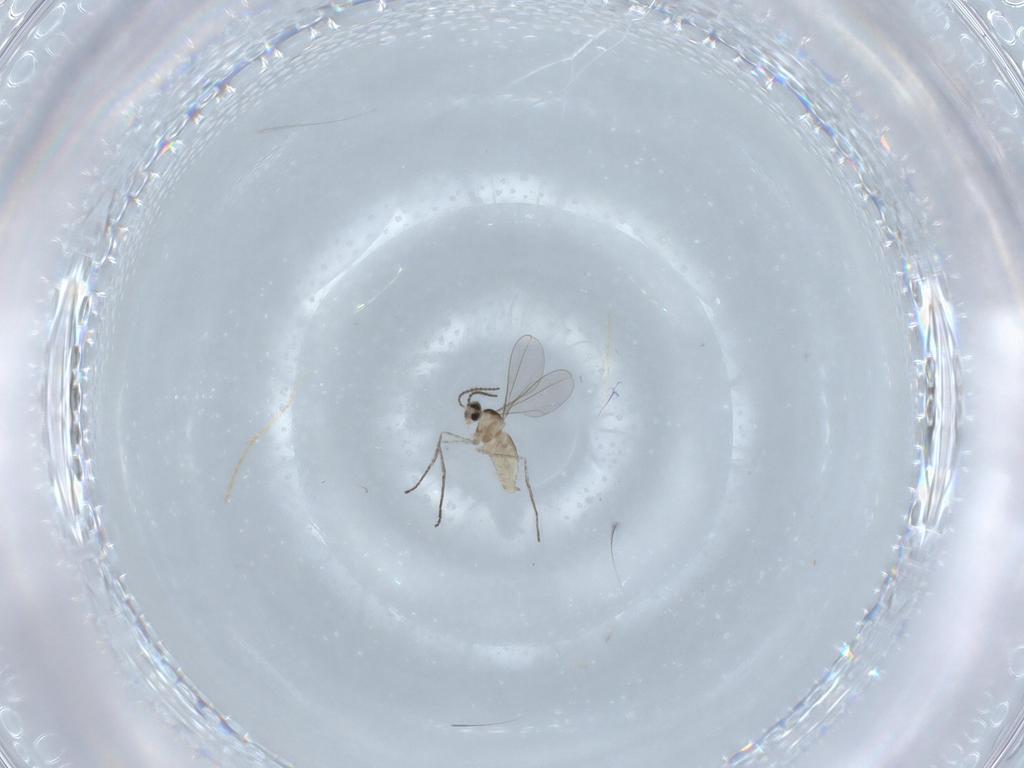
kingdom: Animalia
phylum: Arthropoda
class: Insecta
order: Diptera
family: Cecidomyiidae
